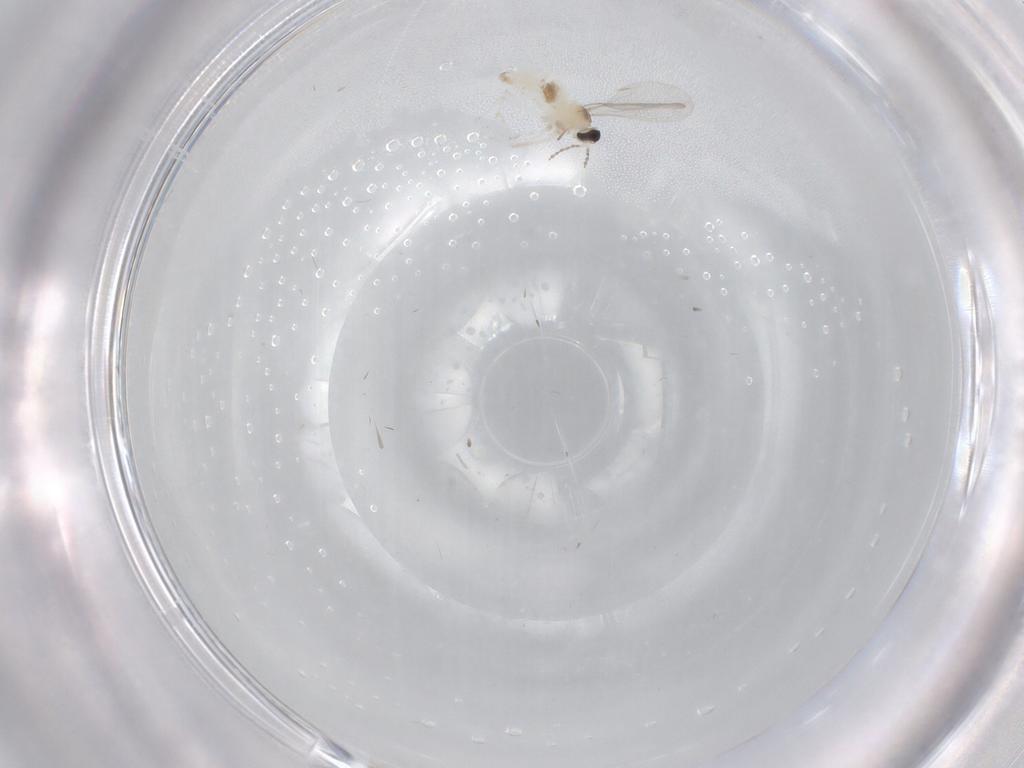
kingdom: Animalia
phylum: Arthropoda
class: Insecta
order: Diptera
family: Cecidomyiidae
